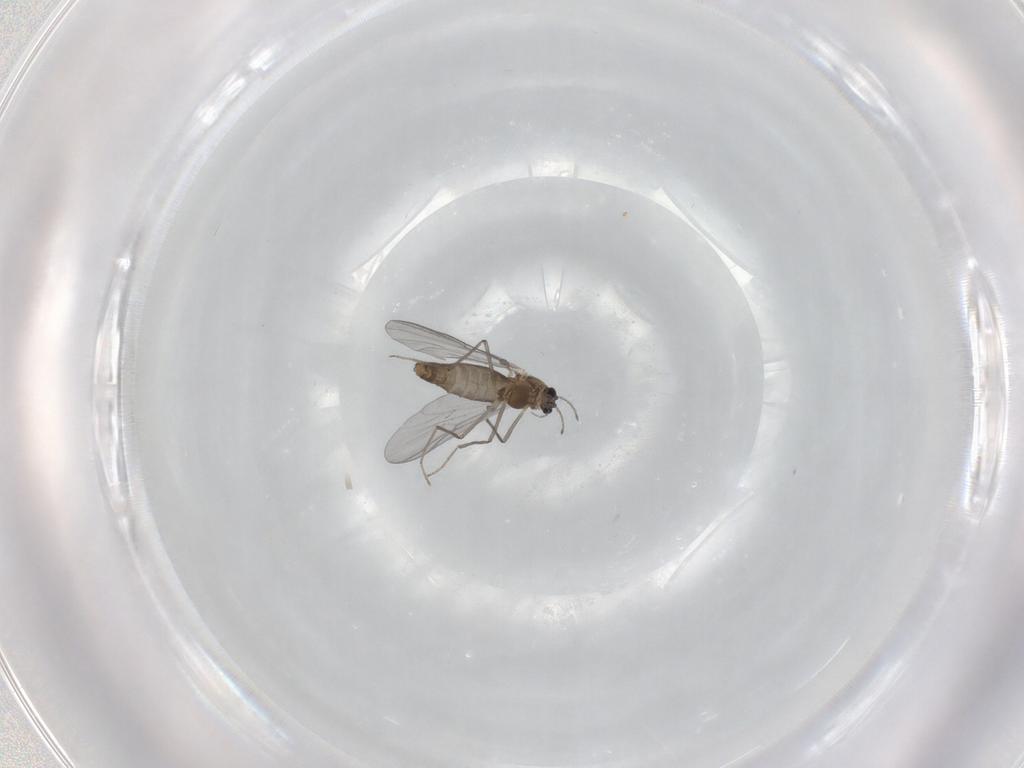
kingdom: Animalia
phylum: Arthropoda
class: Insecta
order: Diptera
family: Chironomidae
